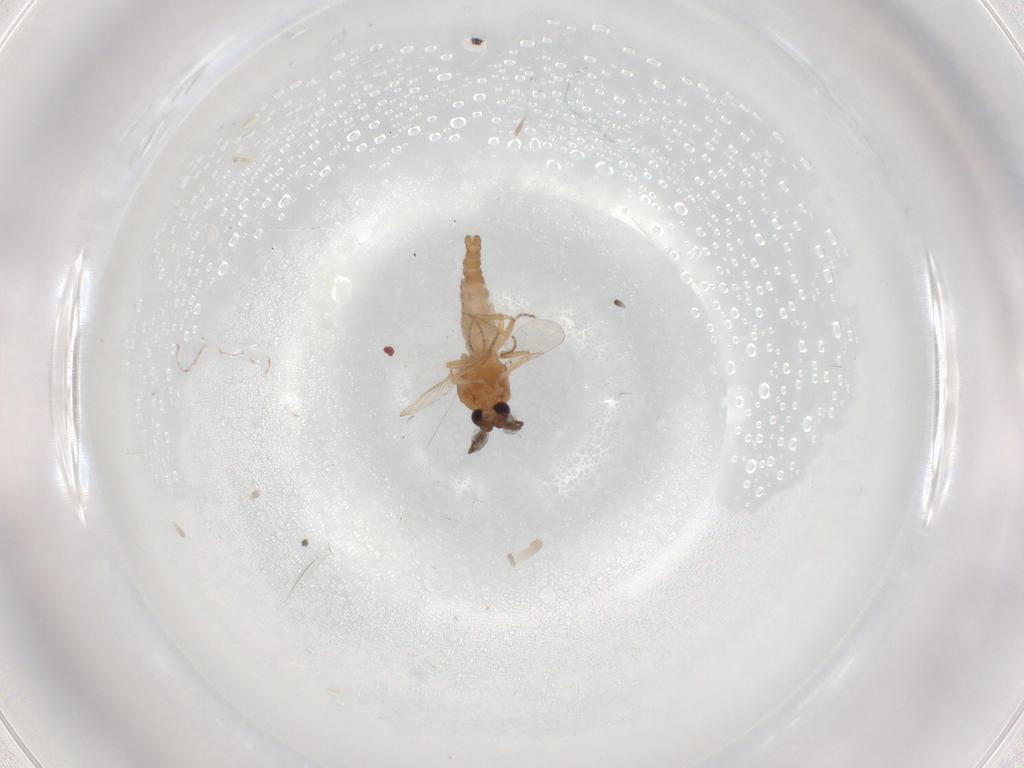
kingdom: Animalia
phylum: Arthropoda
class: Insecta
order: Diptera
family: Ceratopogonidae
